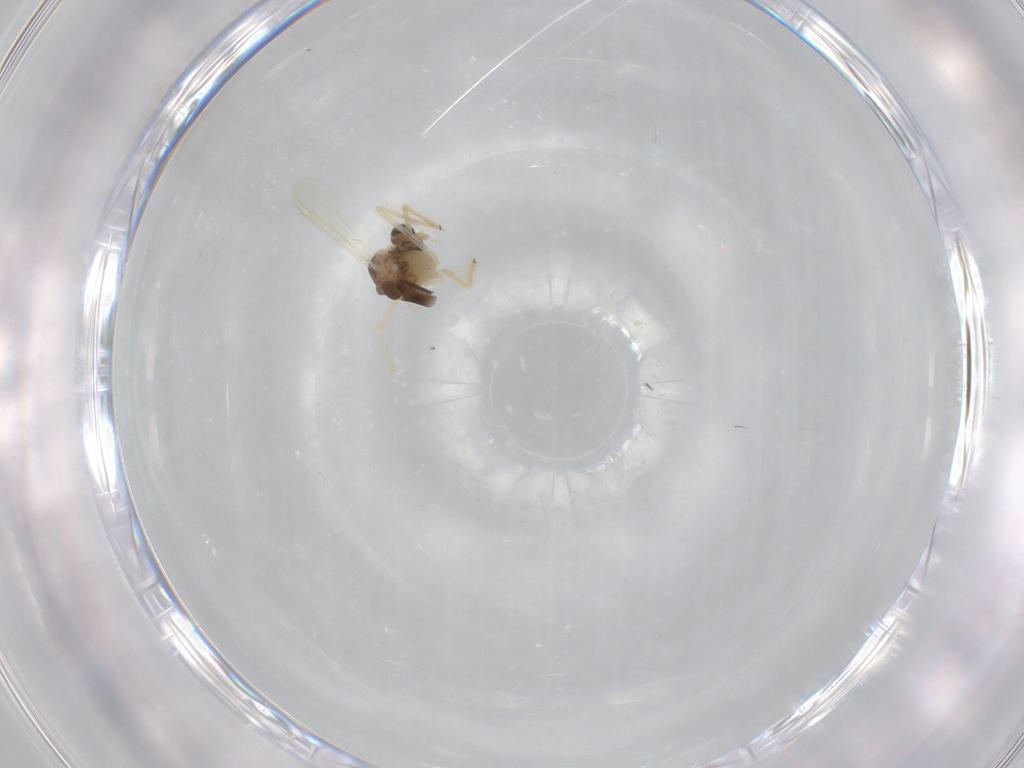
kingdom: Animalia
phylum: Arthropoda
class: Insecta
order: Diptera
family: Chironomidae
